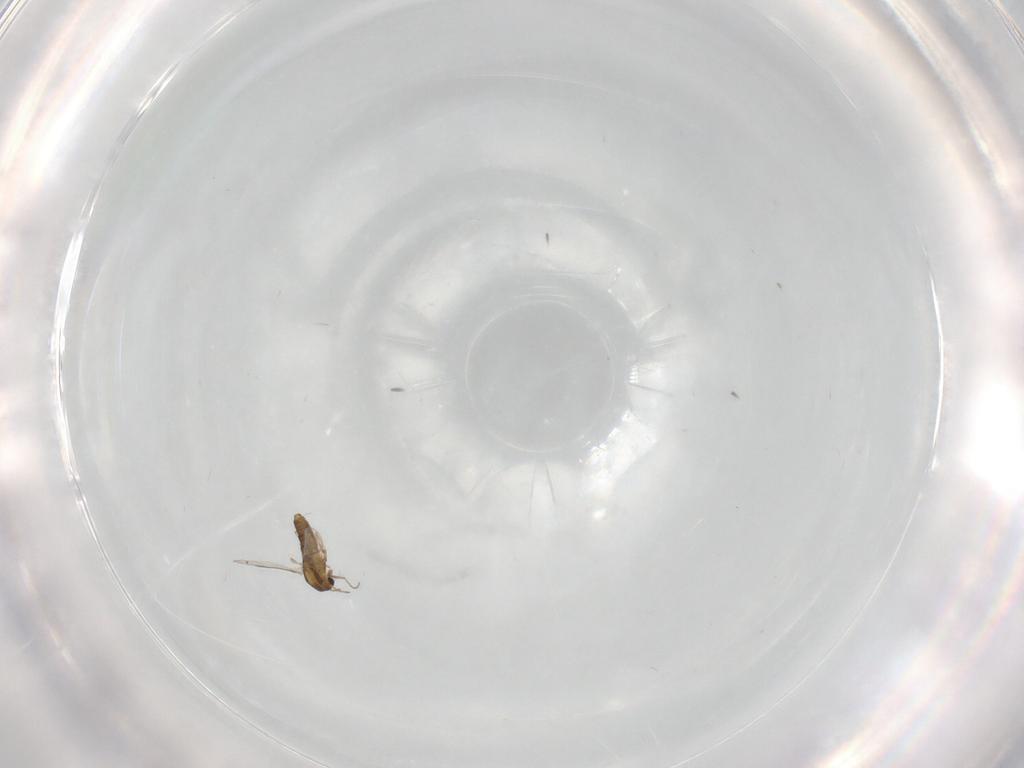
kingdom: Animalia
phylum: Arthropoda
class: Insecta
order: Diptera
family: Chironomidae
